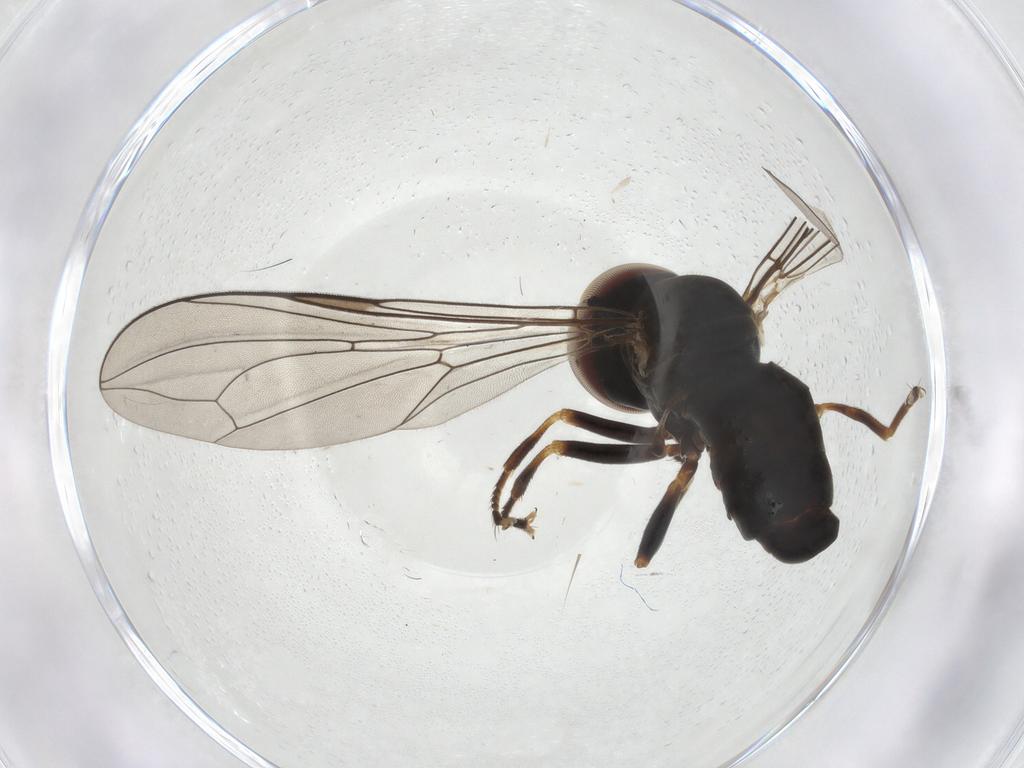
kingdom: Animalia
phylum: Arthropoda
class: Insecta
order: Diptera
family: Pipunculidae
